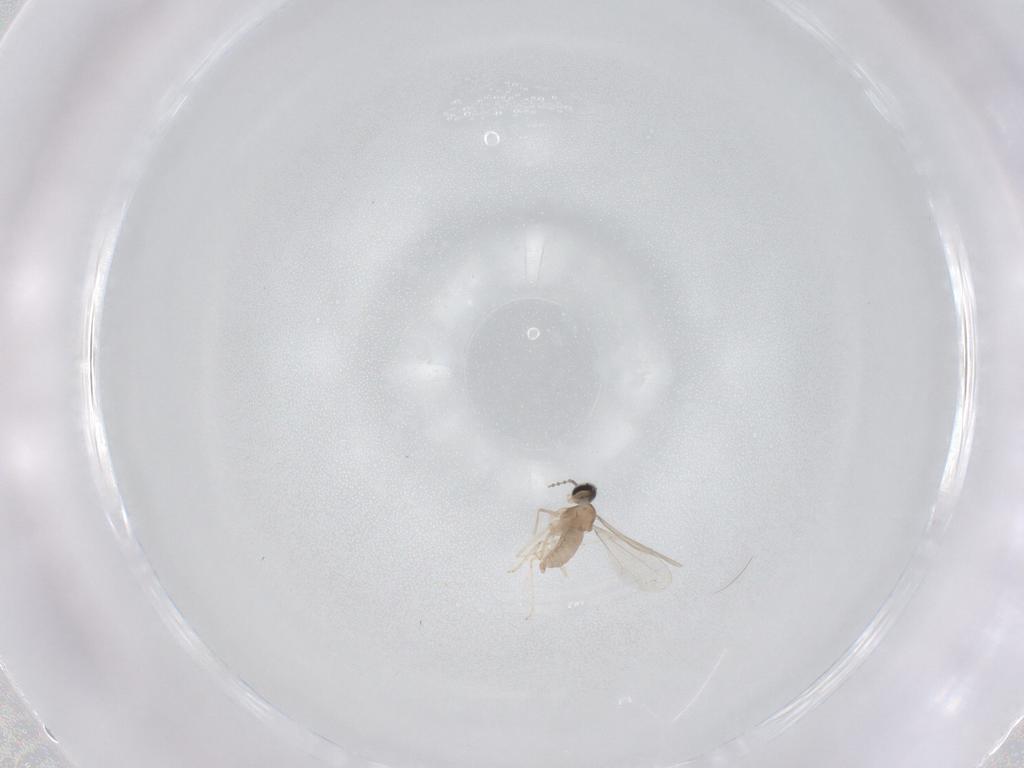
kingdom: Animalia
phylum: Arthropoda
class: Insecta
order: Diptera
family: Cecidomyiidae
